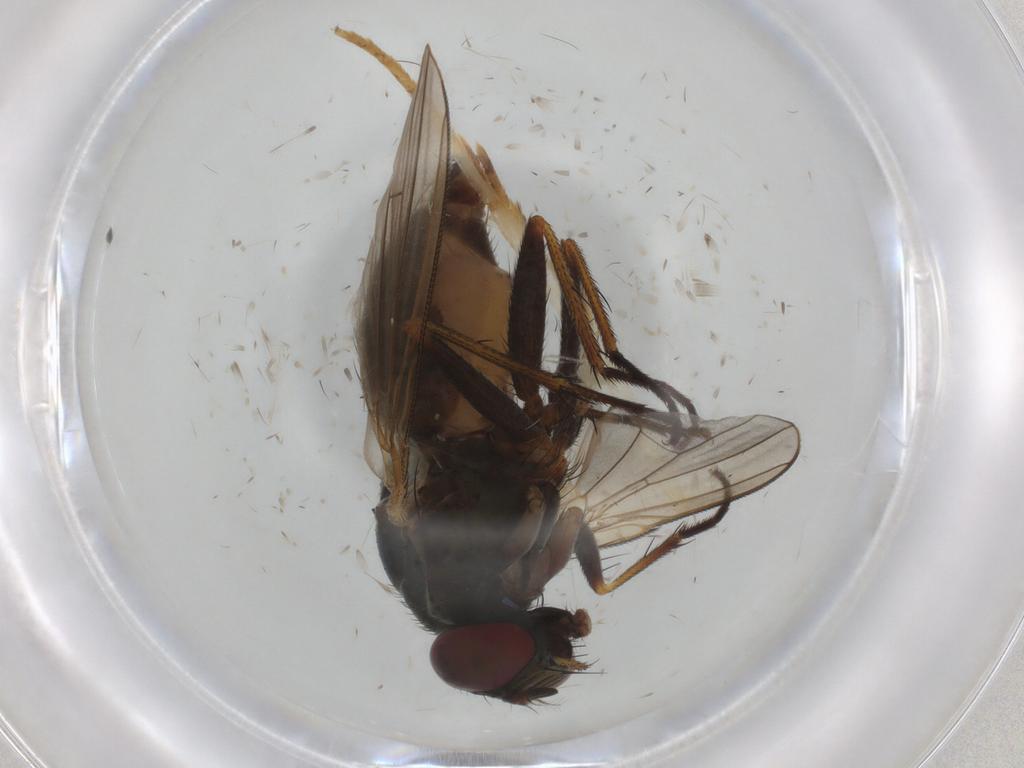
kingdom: Animalia
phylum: Arthropoda
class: Insecta
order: Diptera
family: Muscidae
